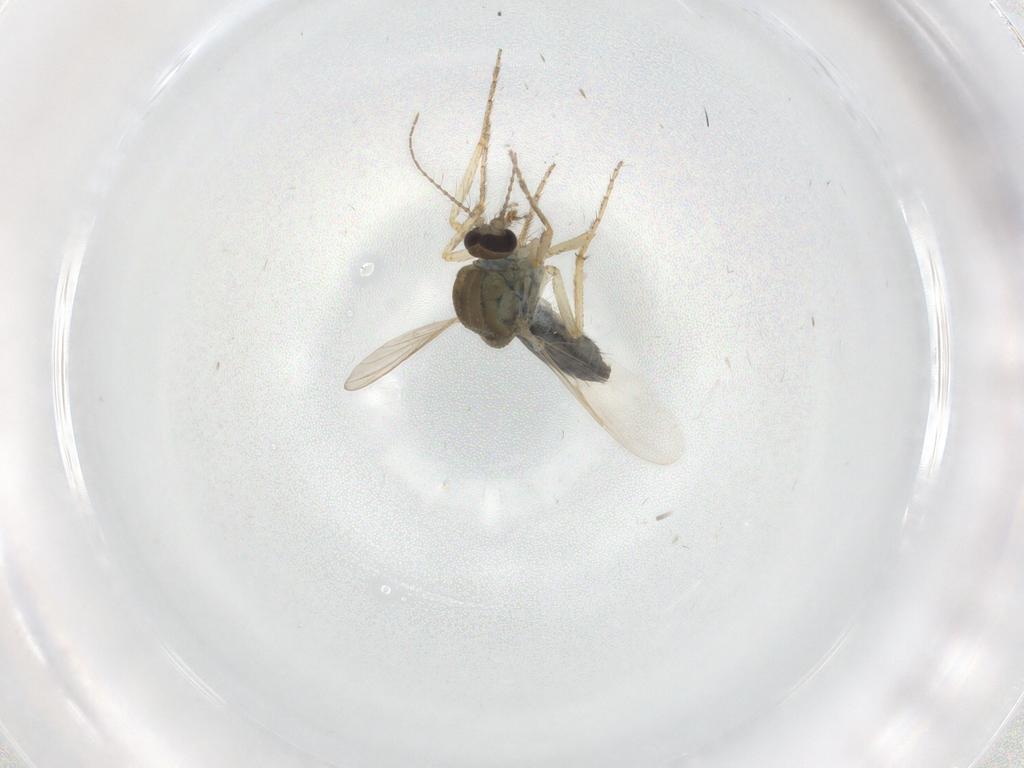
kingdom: Animalia
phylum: Arthropoda
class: Insecta
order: Diptera
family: Ceratopogonidae
